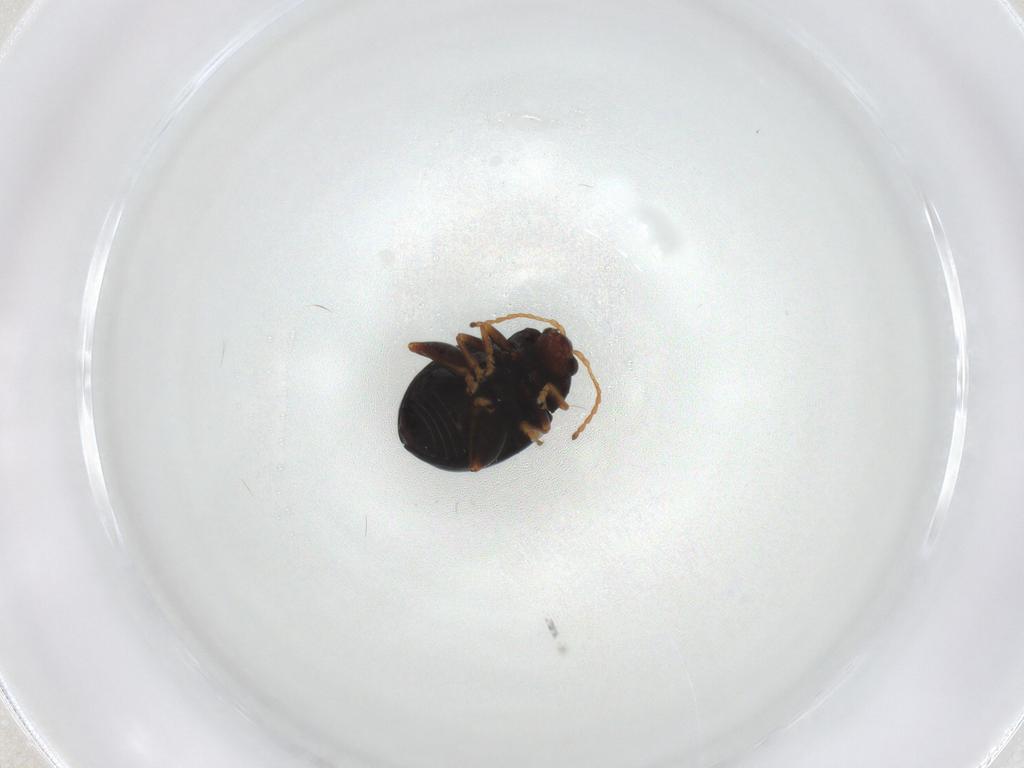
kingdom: Animalia
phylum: Arthropoda
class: Insecta
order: Coleoptera
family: Chrysomelidae
